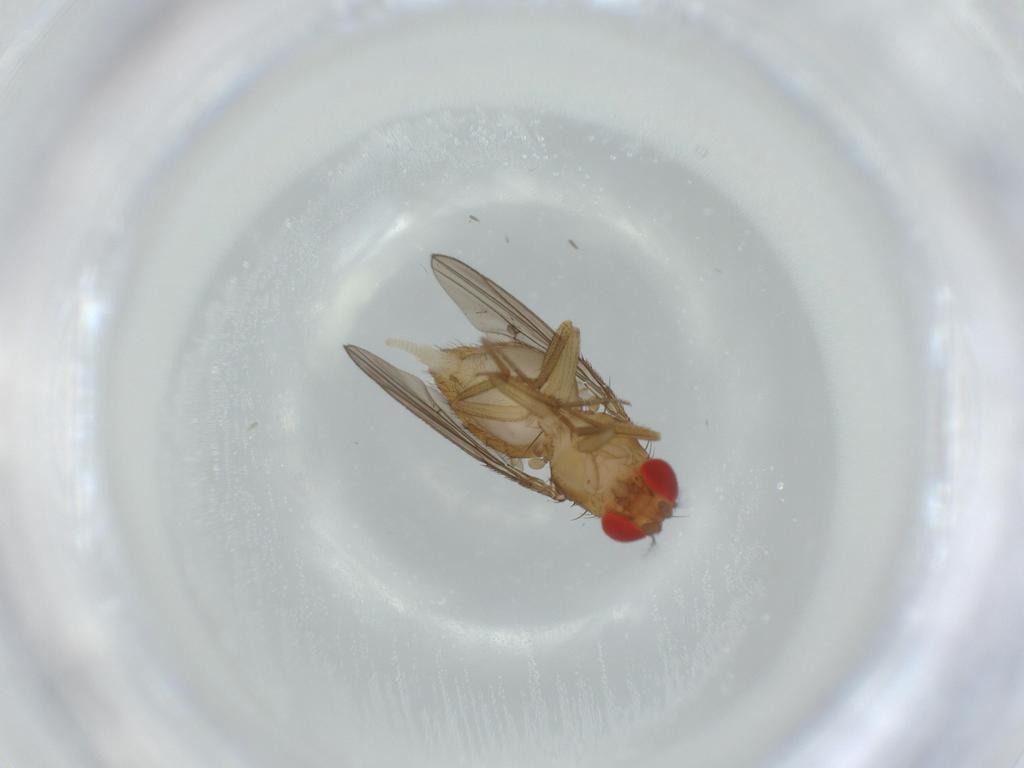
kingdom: Animalia
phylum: Arthropoda
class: Insecta
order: Diptera
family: Drosophilidae
